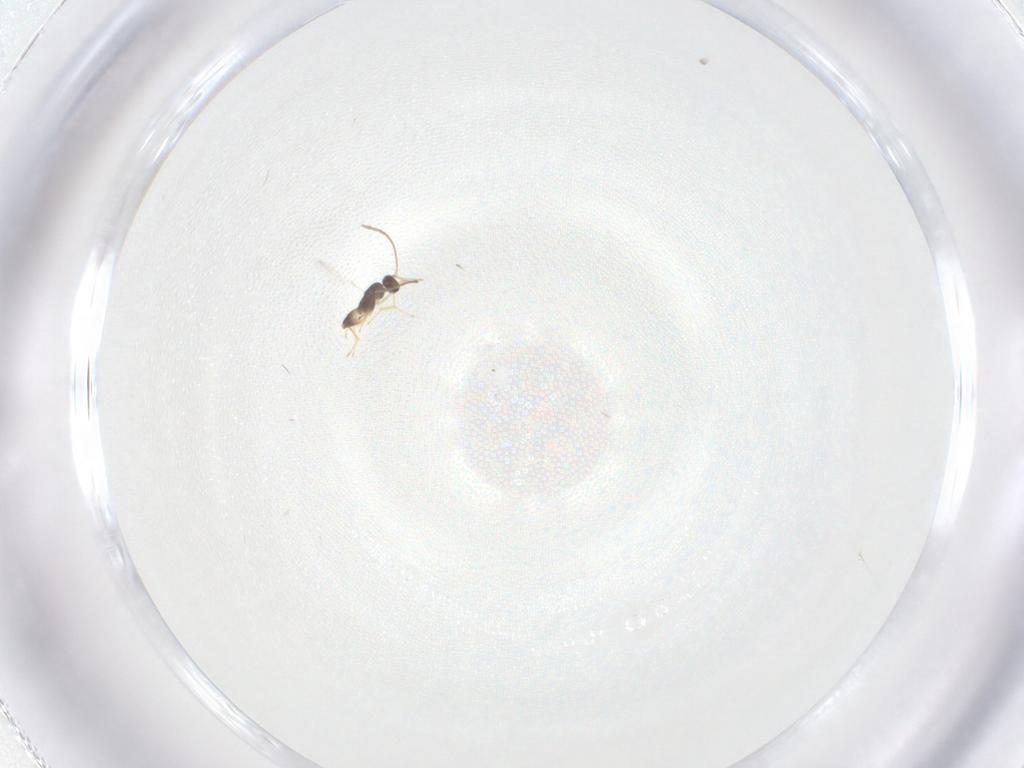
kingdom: Animalia
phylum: Arthropoda
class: Insecta
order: Hymenoptera
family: Mymaridae
